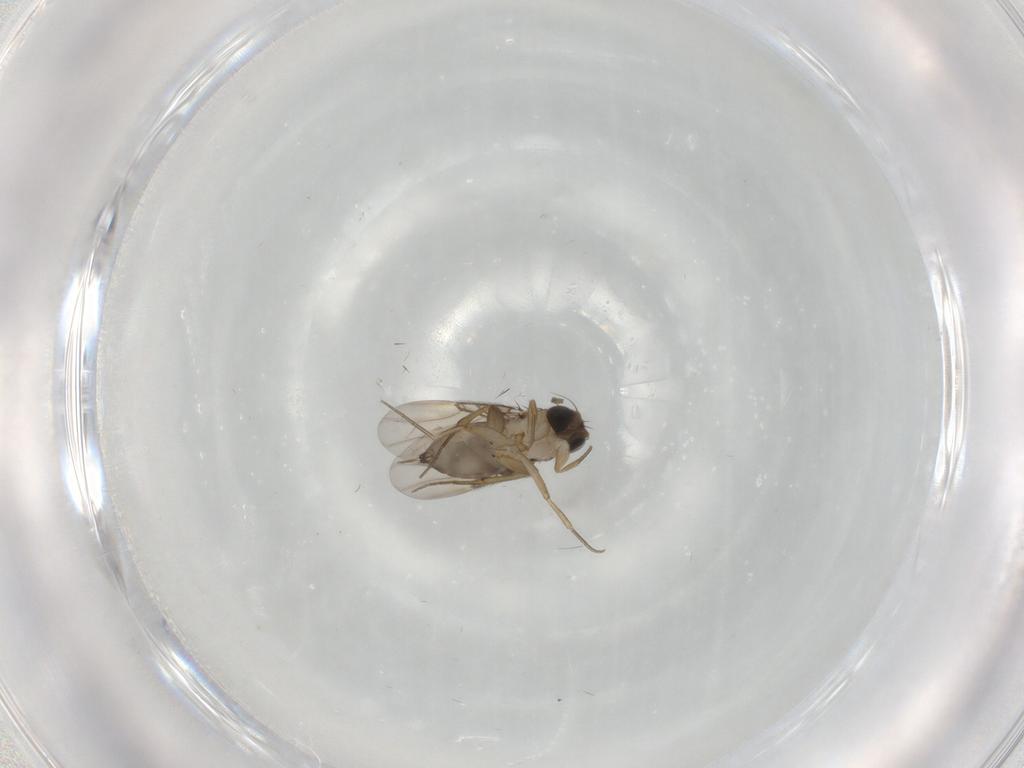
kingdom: Animalia
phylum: Arthropoda
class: Insecta
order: Diptera
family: Phoridae
